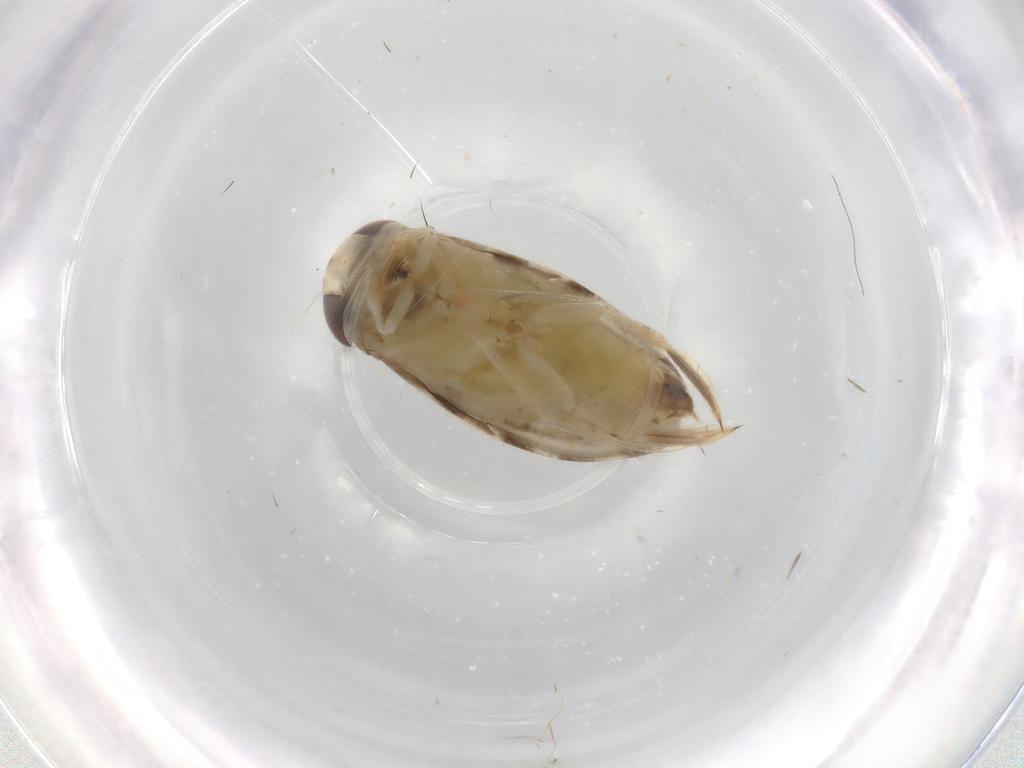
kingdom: Animalia
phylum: Arthropoda
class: Insecta
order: Hemiptera
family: Corixidae
